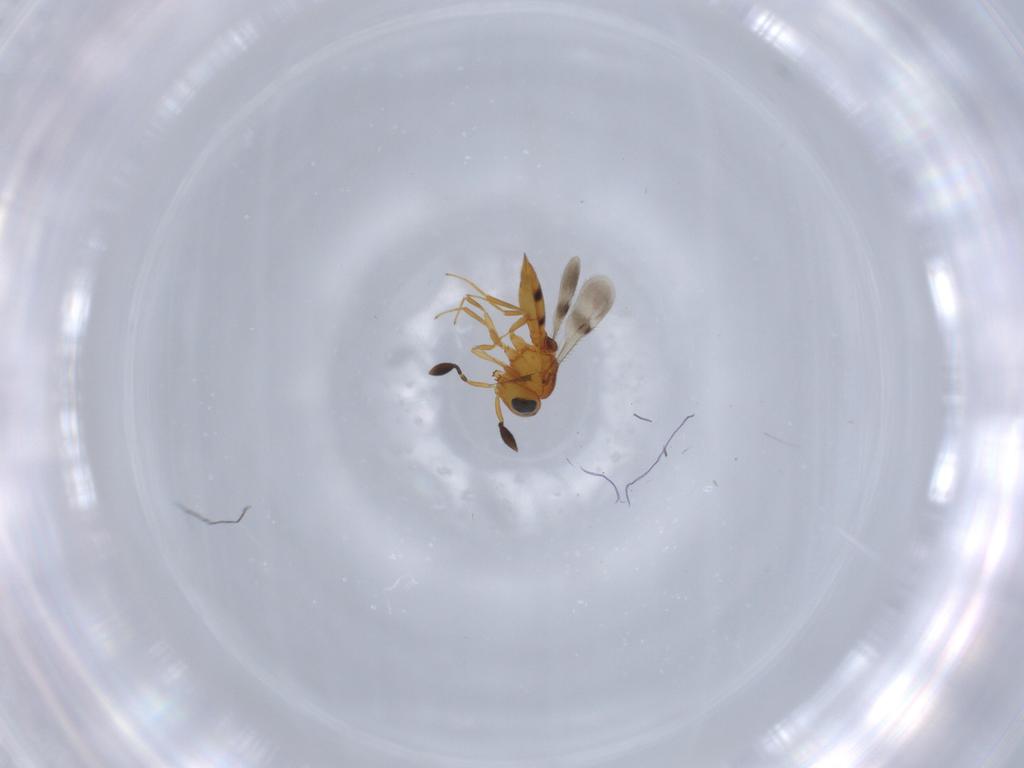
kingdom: Animalia
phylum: Arthropoda
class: Insecta
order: Hymenoptera
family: Scelionidae
